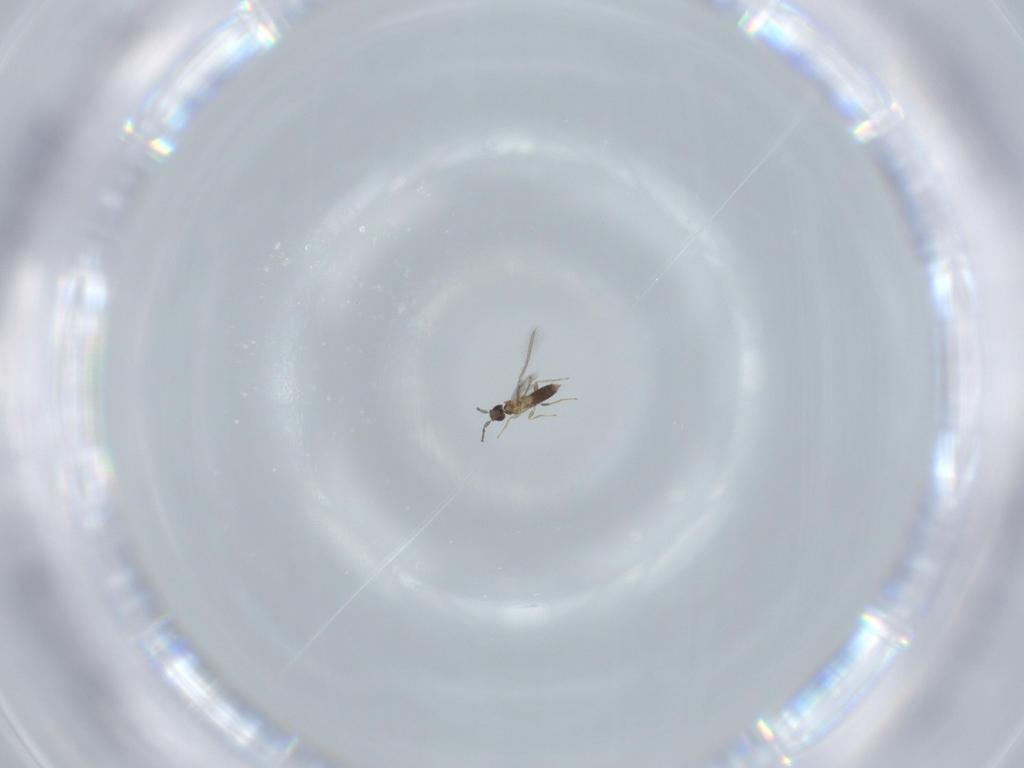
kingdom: Animalia
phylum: Arthropoda
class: Insecta
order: Hymenoptera
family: Mymaridae
